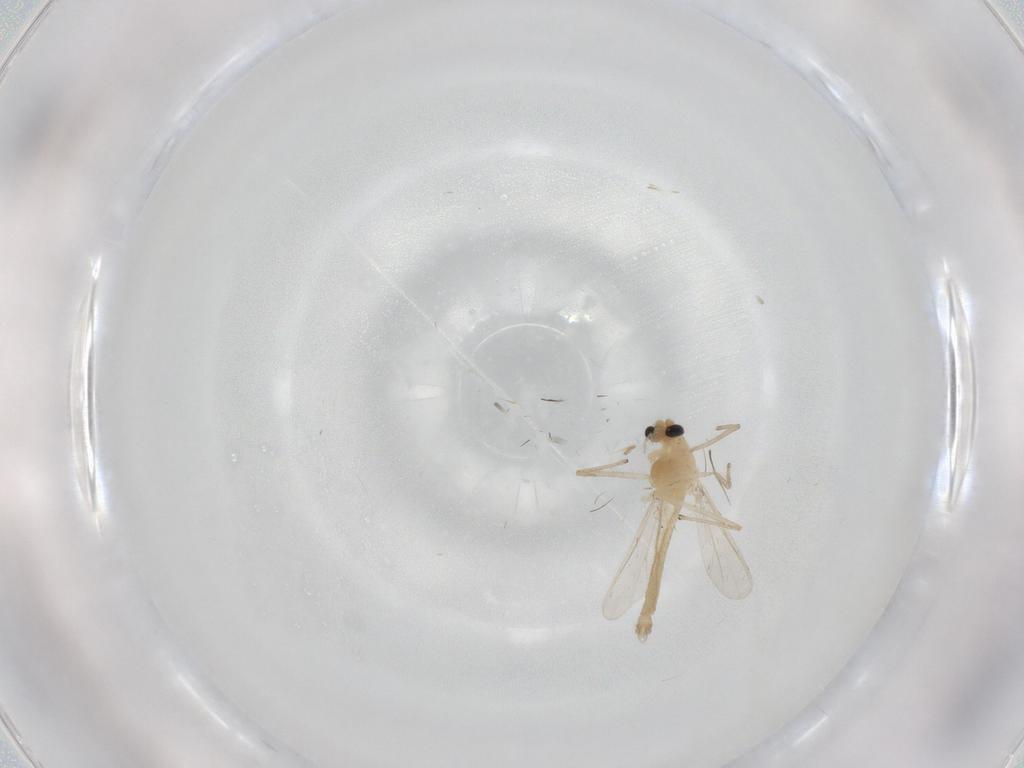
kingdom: Animalia
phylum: Arthropoda
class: Insecta
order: Diptera
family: Chironomidae
